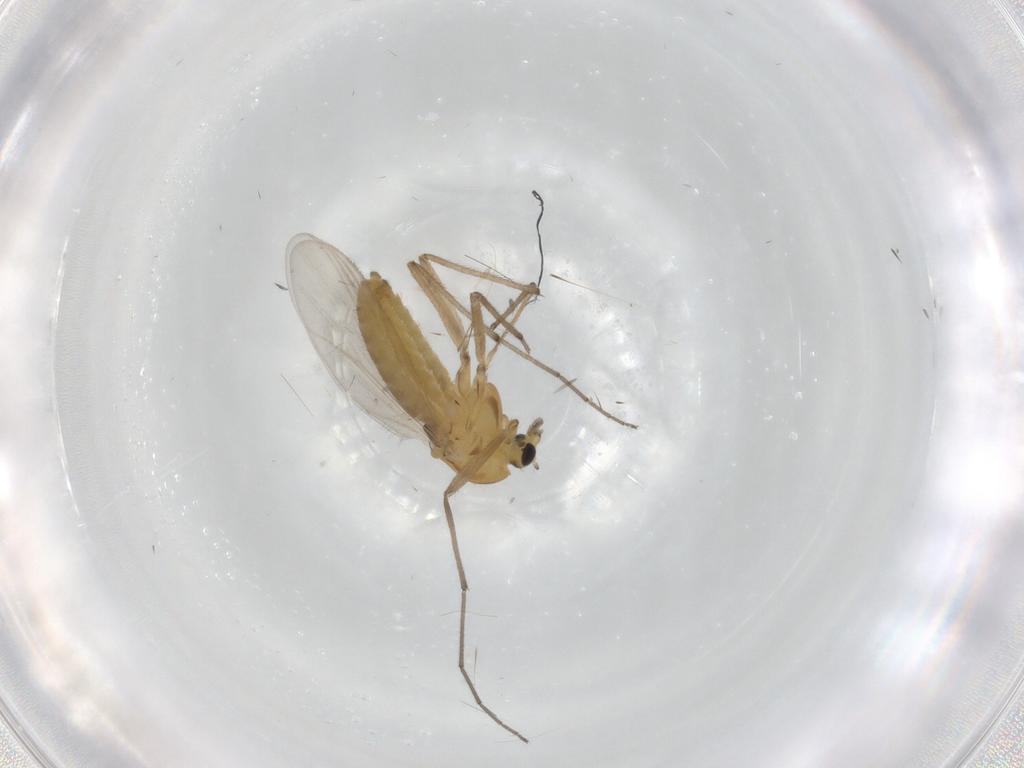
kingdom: Animalia
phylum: Arthropoda
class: Insecta
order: Diptera
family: Chironomidae
